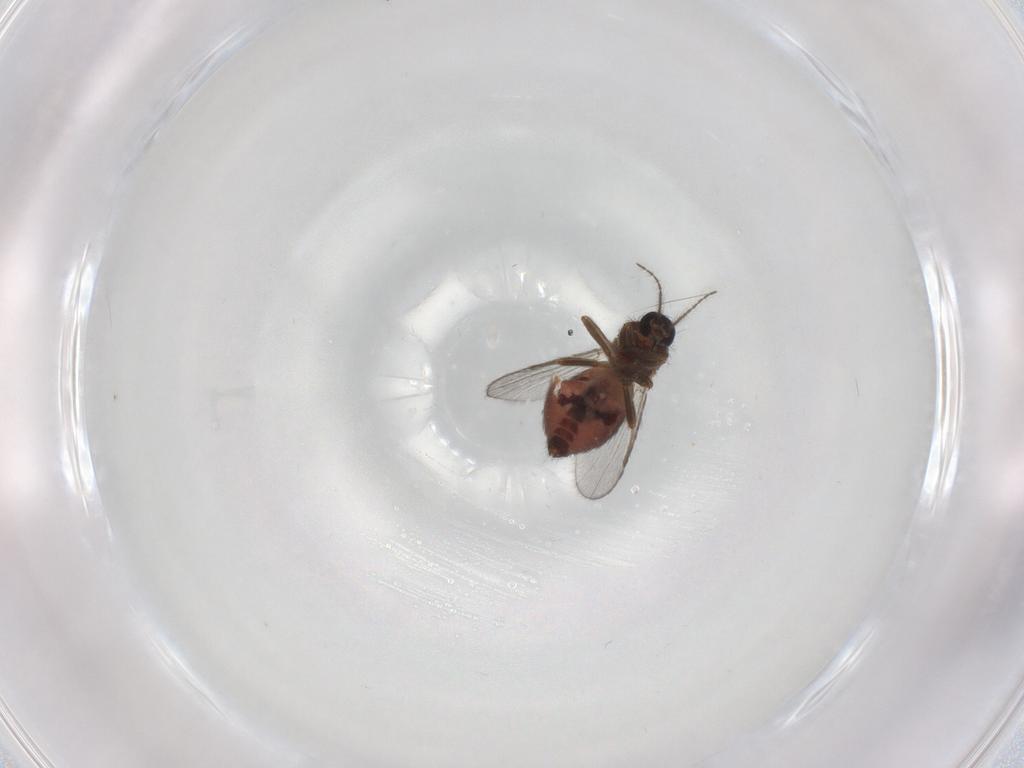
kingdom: Animalia
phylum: Arthropoda
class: Insecta
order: Diptera
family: Ceratopogonidae
